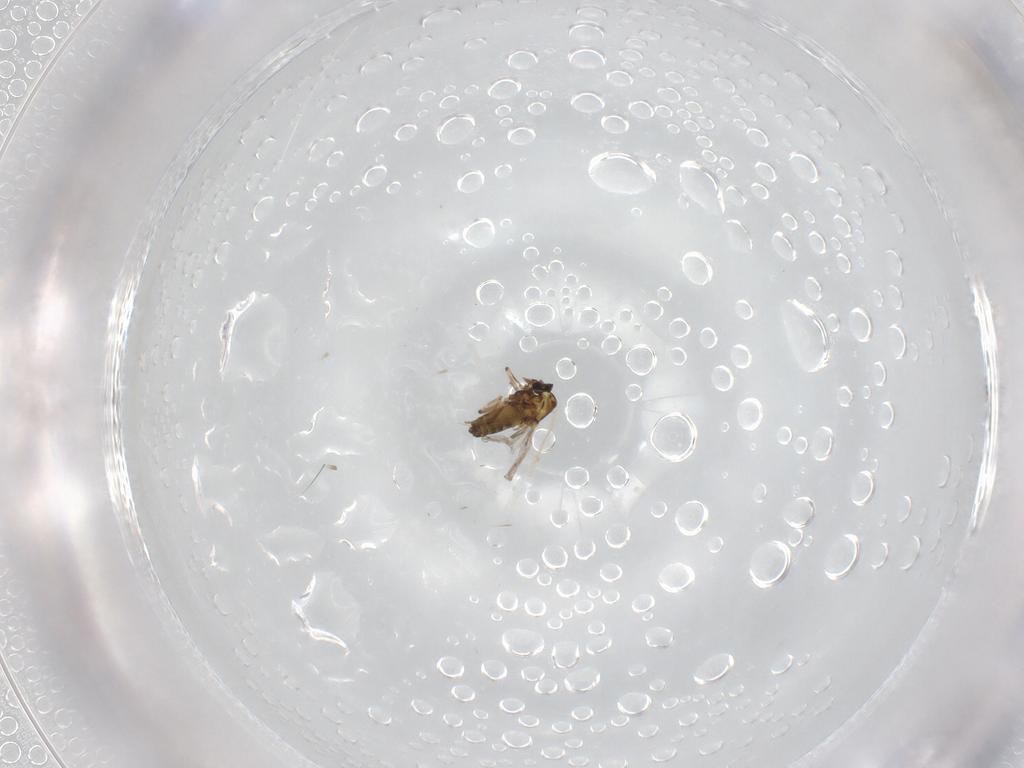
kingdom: Animalia
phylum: Arthropoda
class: Insecta
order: Diptera
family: Ceratopogonidae
